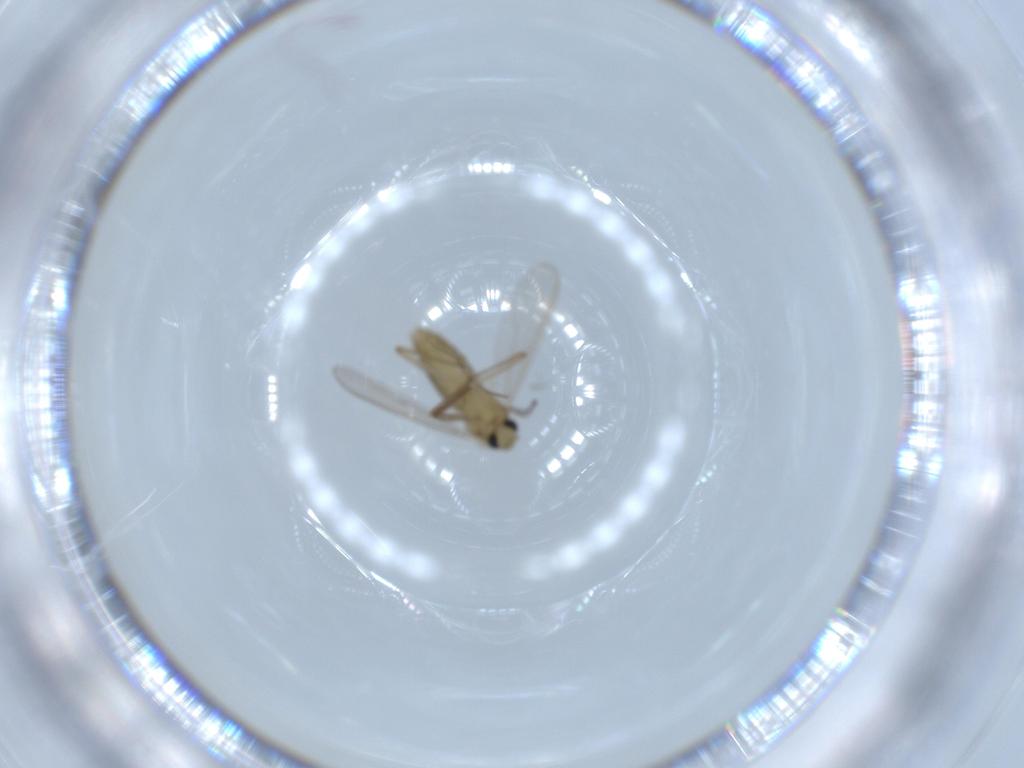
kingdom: Animalia
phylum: Arthropoda
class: Insecta
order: Diptera
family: Chironomidae
